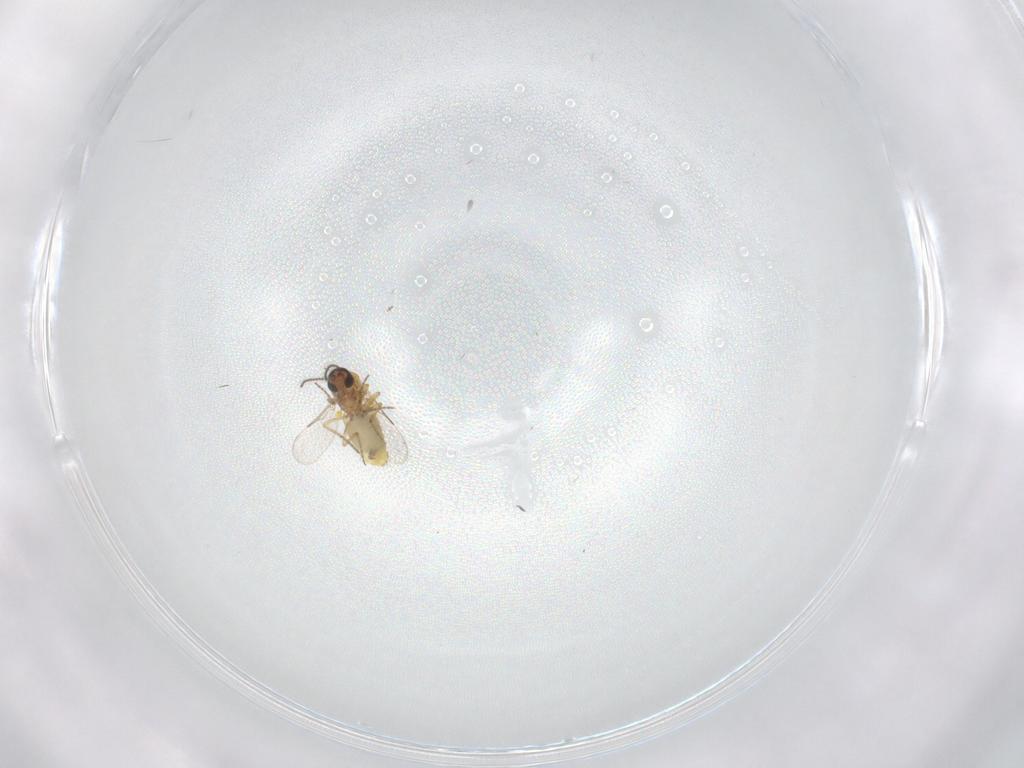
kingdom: Animalia
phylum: Arthropoda
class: Insecta
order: Diptera
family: Ceratopogonidae
